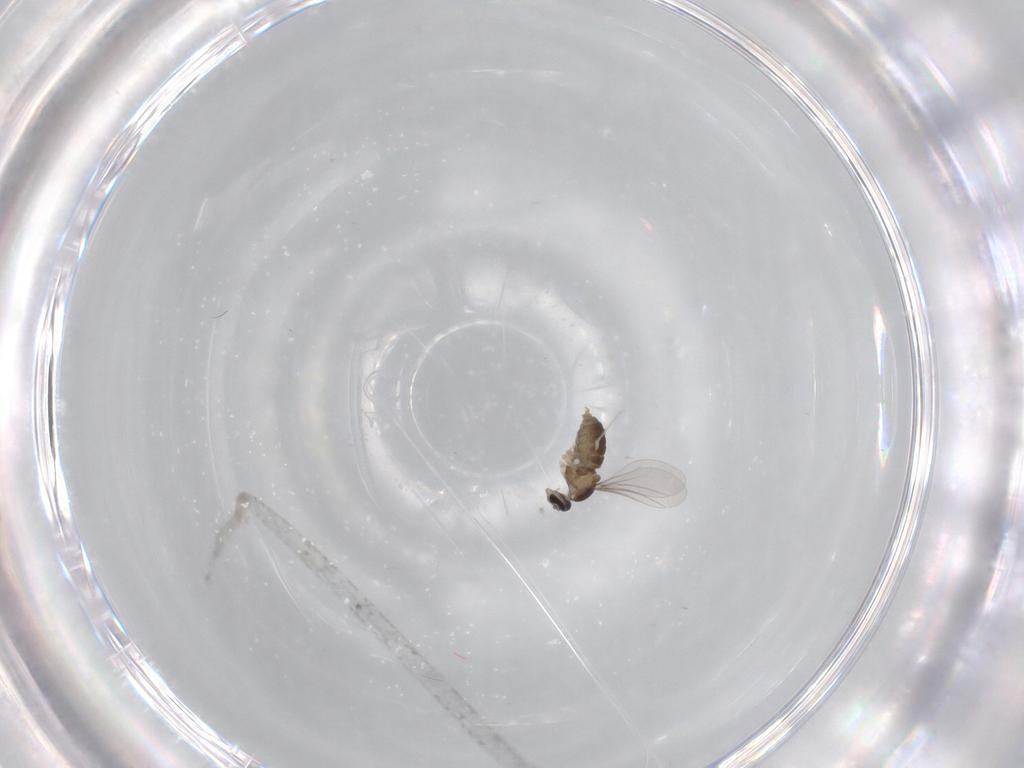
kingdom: Animalia
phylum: Arthropoda
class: Insecta
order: Diptera
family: Cecidomyiidae
